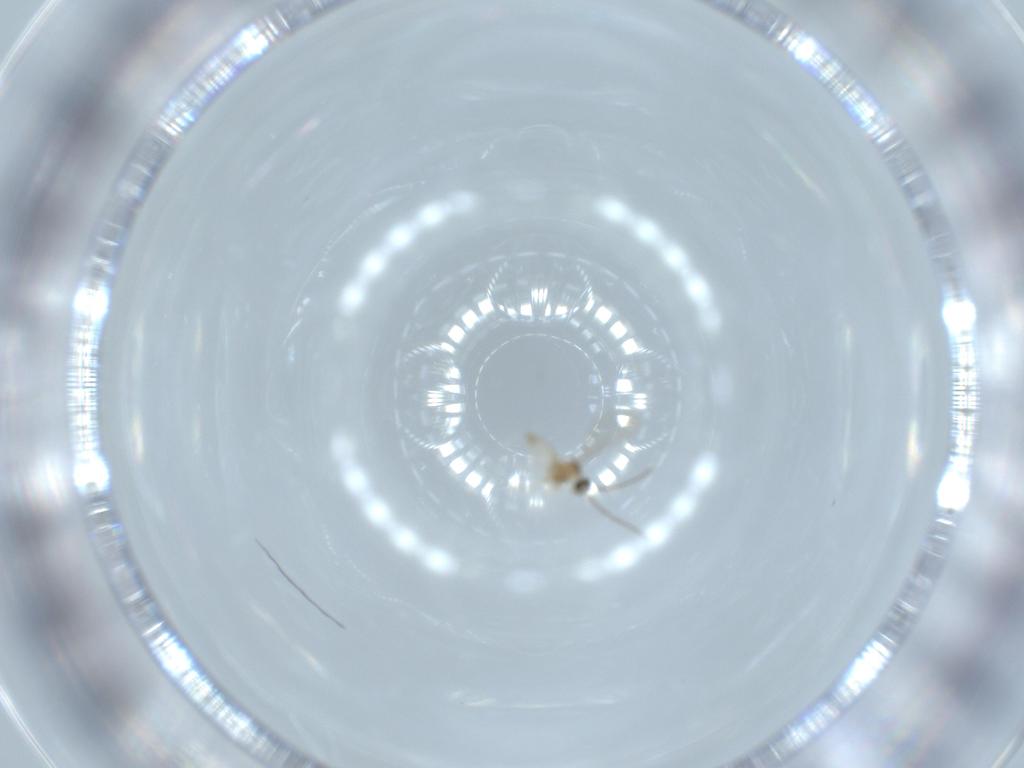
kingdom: Animalia
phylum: Arthropoda
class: Insecta
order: Diptera
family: Cecidomyiidae
